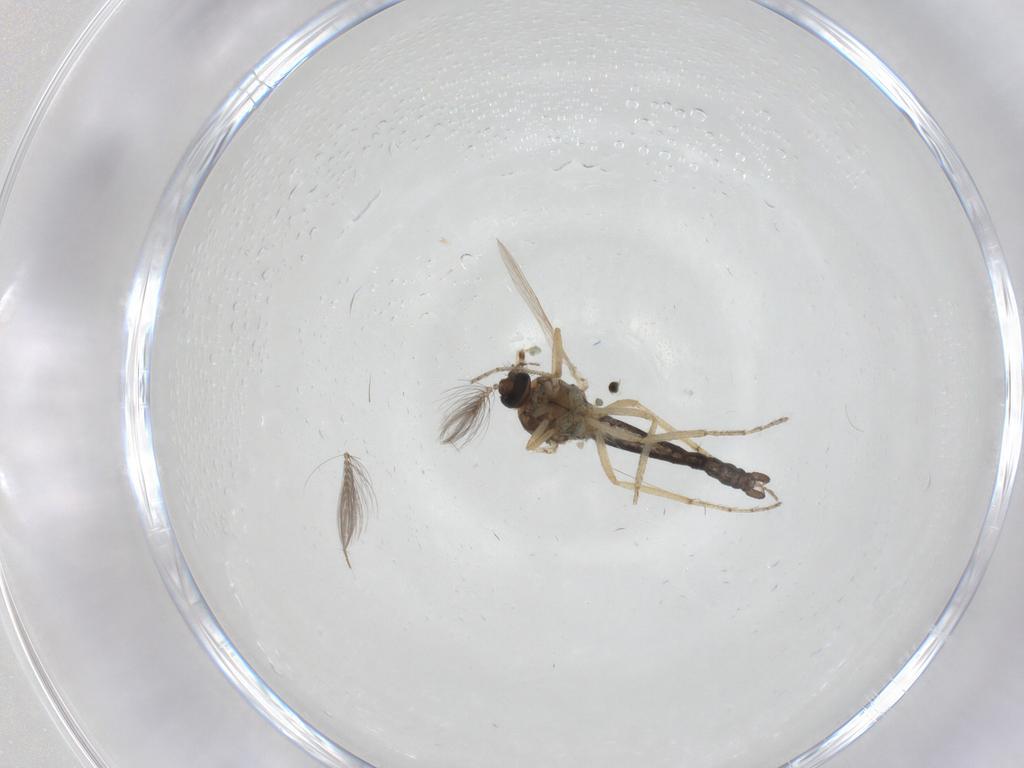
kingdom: Animalia
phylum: Arthropoda
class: Insecta
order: Diptera
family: Ceratopogonidae
